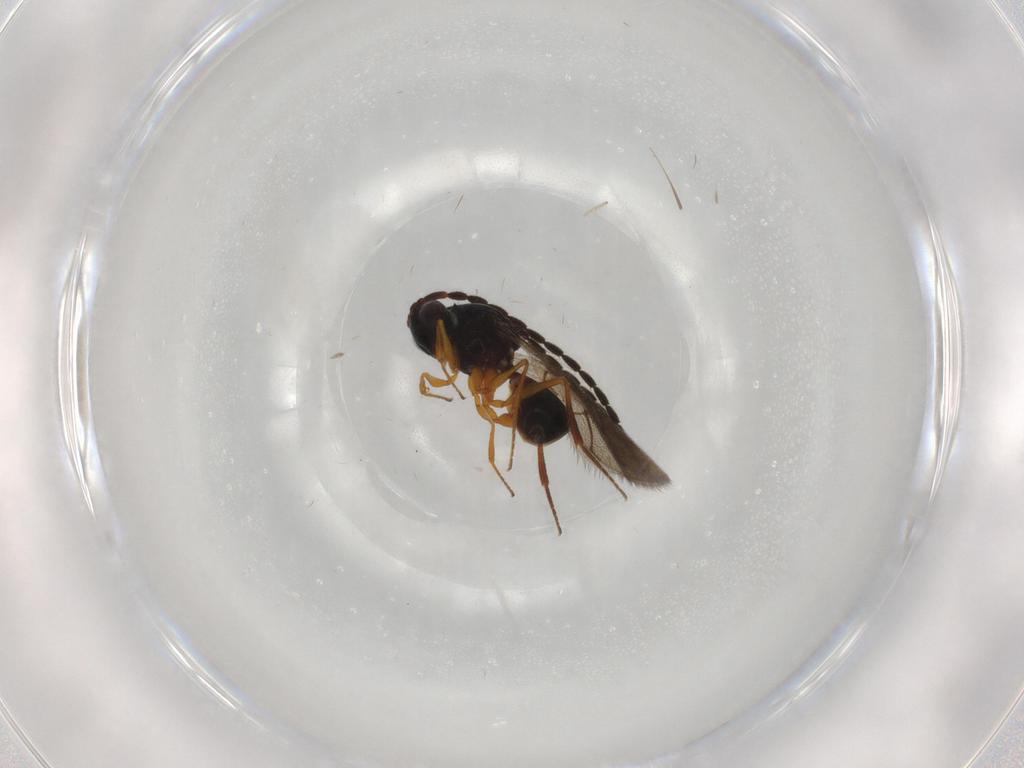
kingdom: Animalia
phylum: Arthropoda
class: Insecta
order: Hymenoptera
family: Figitidae
